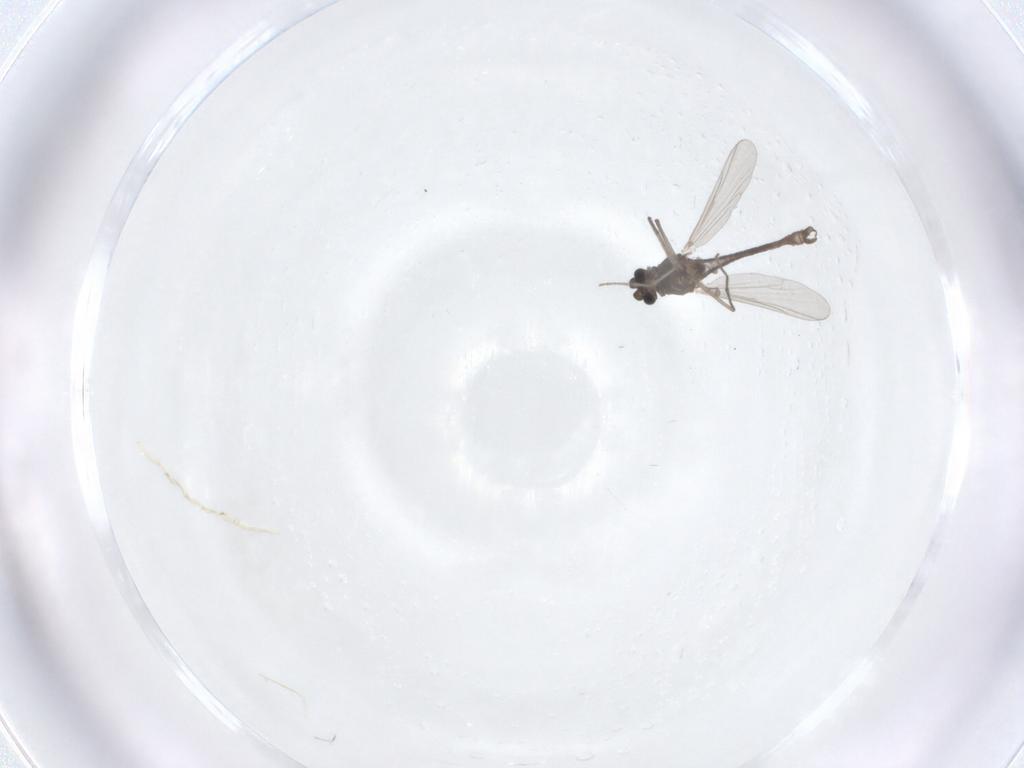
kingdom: Animalia
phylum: Arthropoda
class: Insecta
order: Diptera
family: Chironomidae
